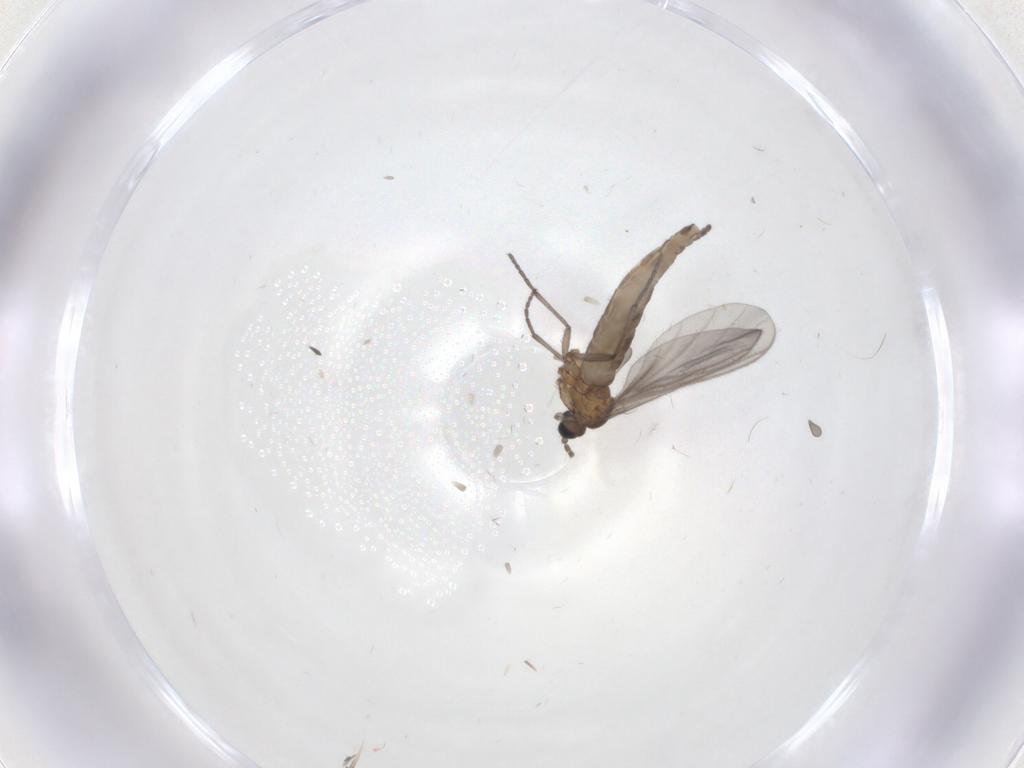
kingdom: Animalia
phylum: Arthropoda
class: Insecta
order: Diptera
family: Sciaridae
